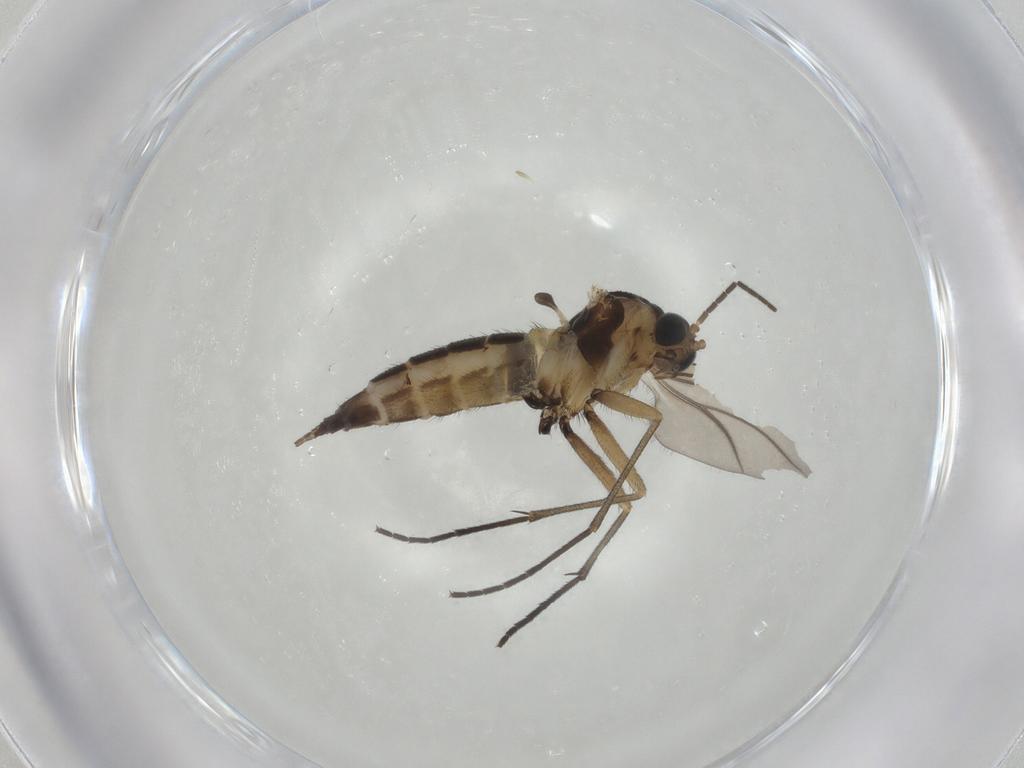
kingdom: Animalia
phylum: Arthropoda
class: Insecta
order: Diptera
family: Sciaridae
